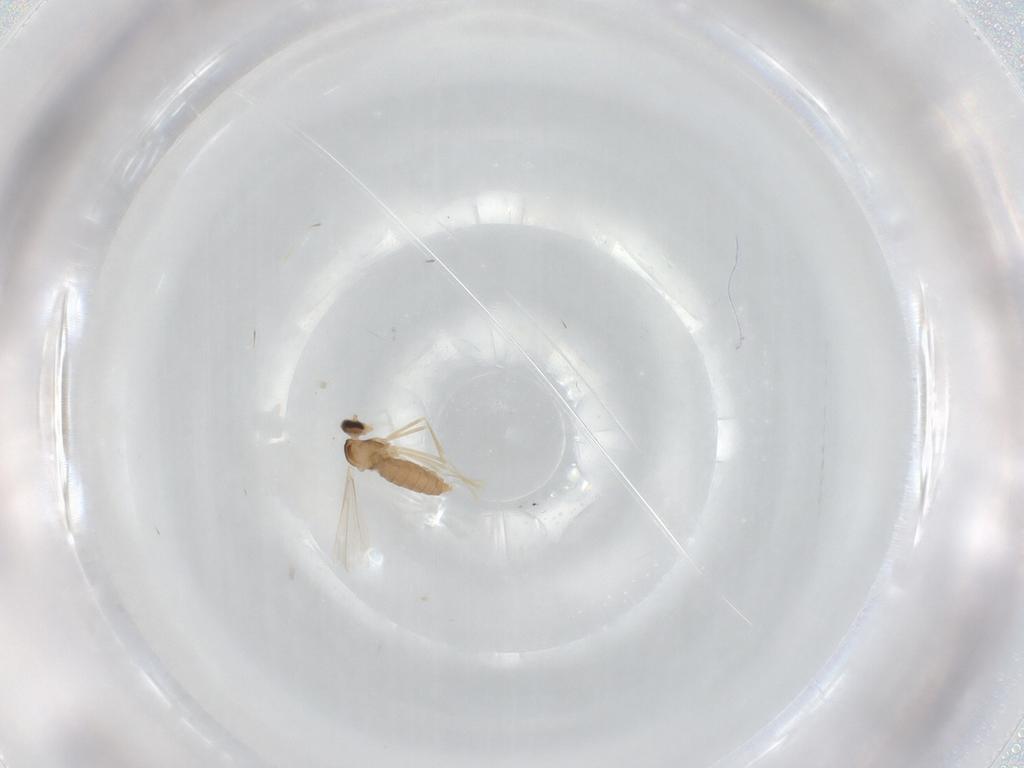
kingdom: Animalia
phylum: Arthropoda
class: Insecta
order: Diptera
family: Cecidomyiidae
